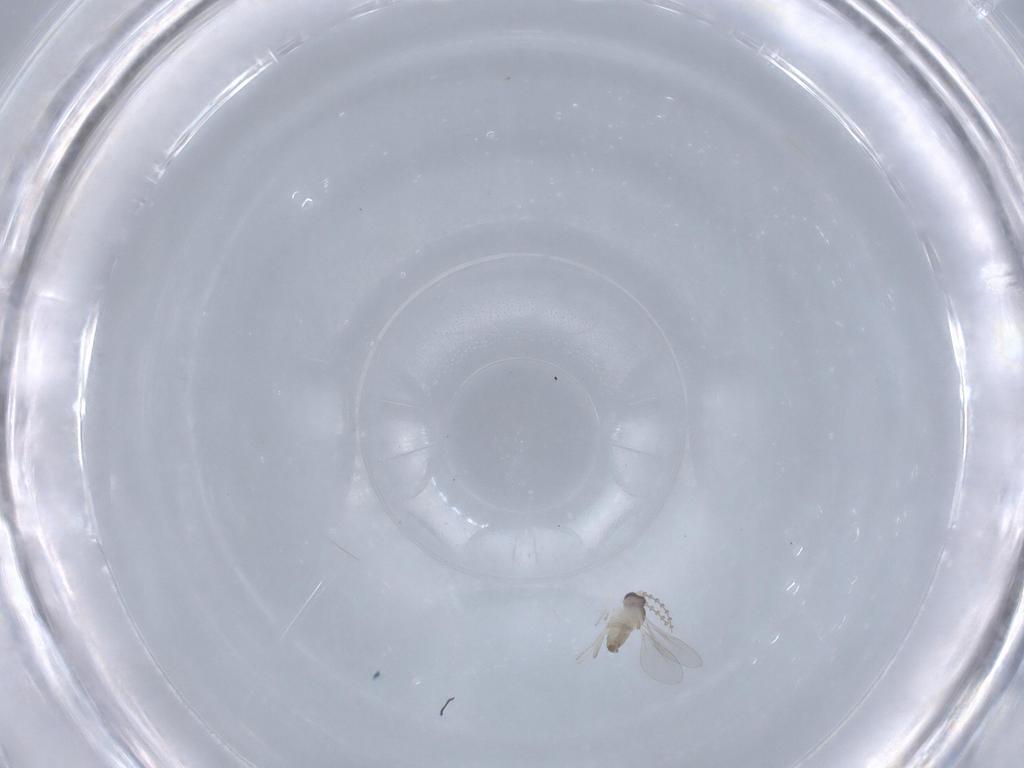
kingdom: Animalia
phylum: Arthropoda
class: Insecta
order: Diptera
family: Cecidomyiidae
